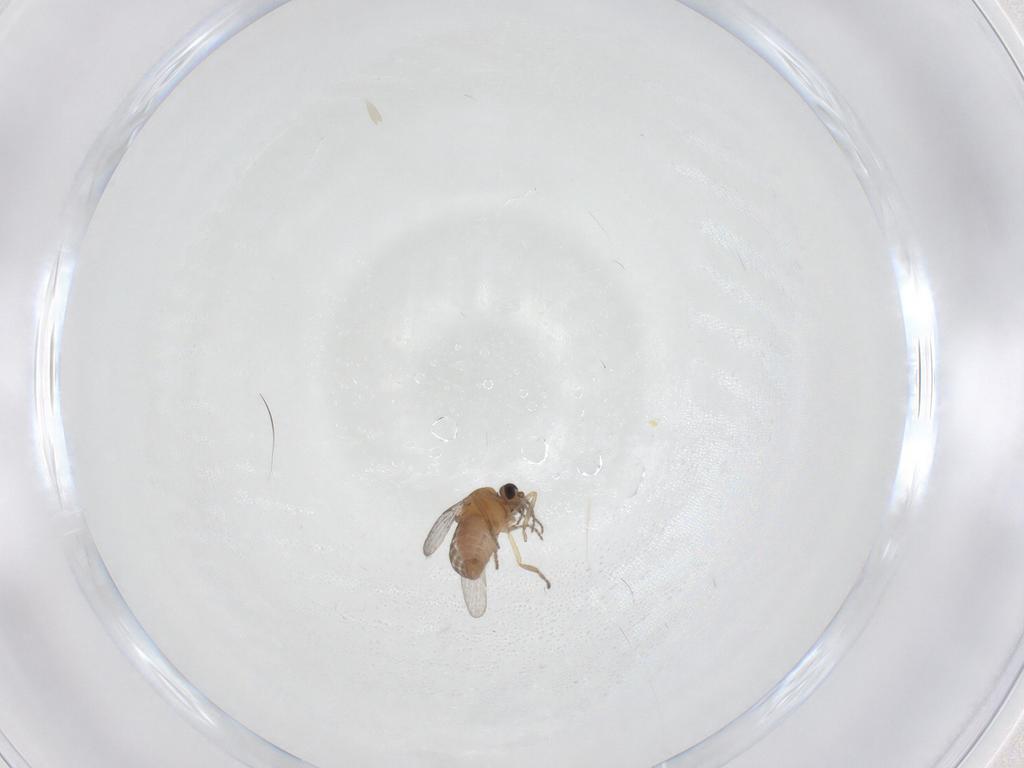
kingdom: Animalia
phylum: Arthropoda
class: Insecta
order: Diptera
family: Ceratopogonidae
